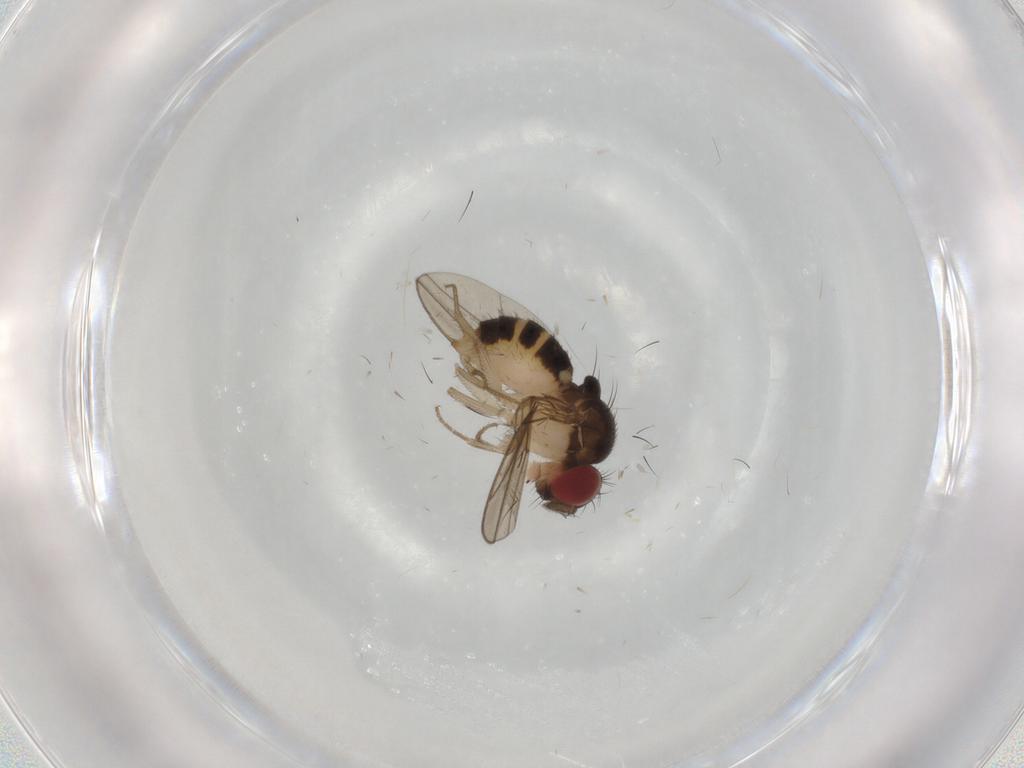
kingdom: Animalia
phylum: Arthropoda
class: Insecta
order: Diptera
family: Drosophilidae
